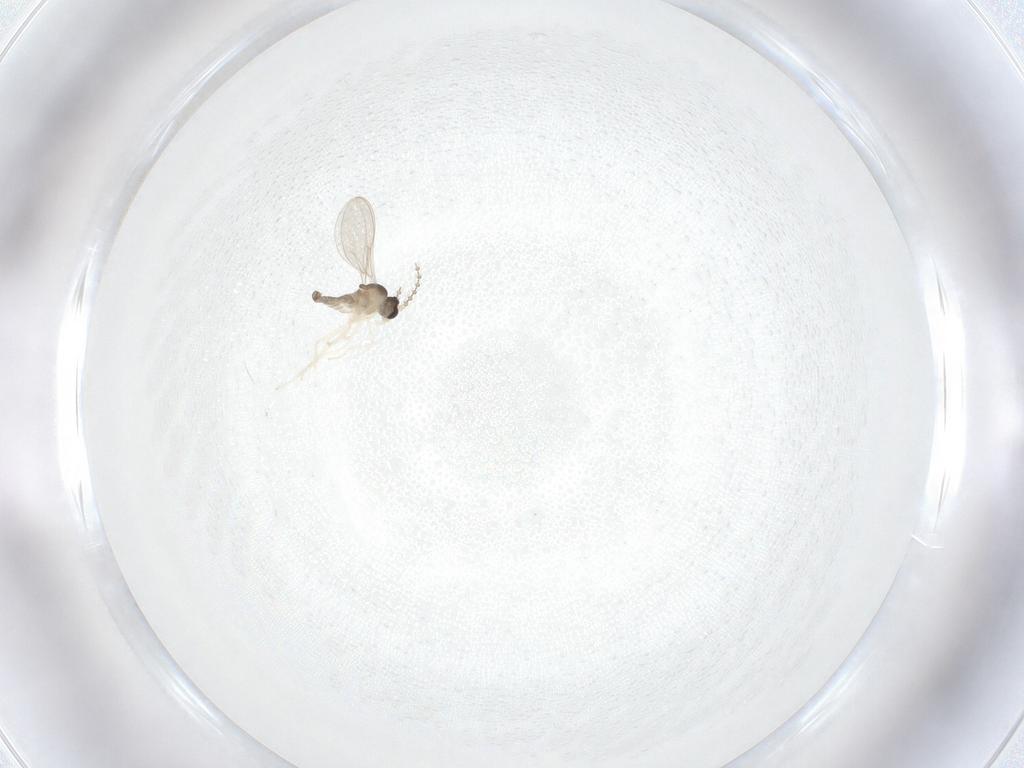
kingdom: Animalia
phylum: Arthropoda
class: Insecta
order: Diptera
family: Cecidomyiidae
